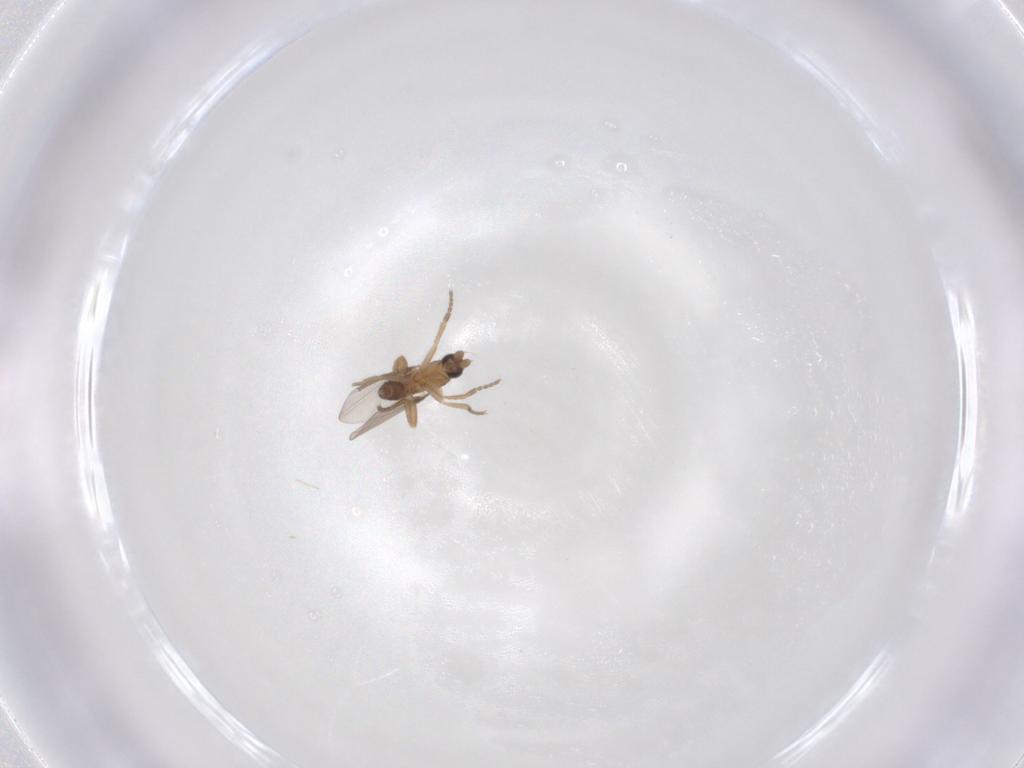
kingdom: Animalia
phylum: Arthropoda
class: Insecta
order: Diptera
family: Phoridae
